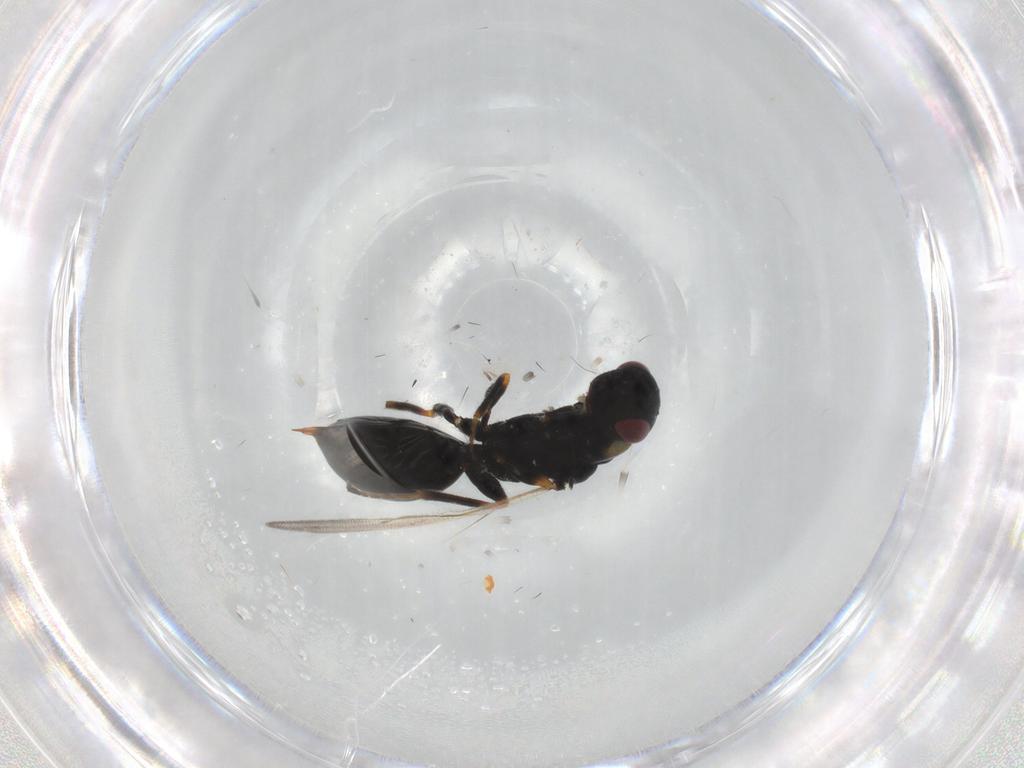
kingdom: Animalia
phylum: Arthropoda
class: Insecta
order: Hymenoptera
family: Eurytomidae
